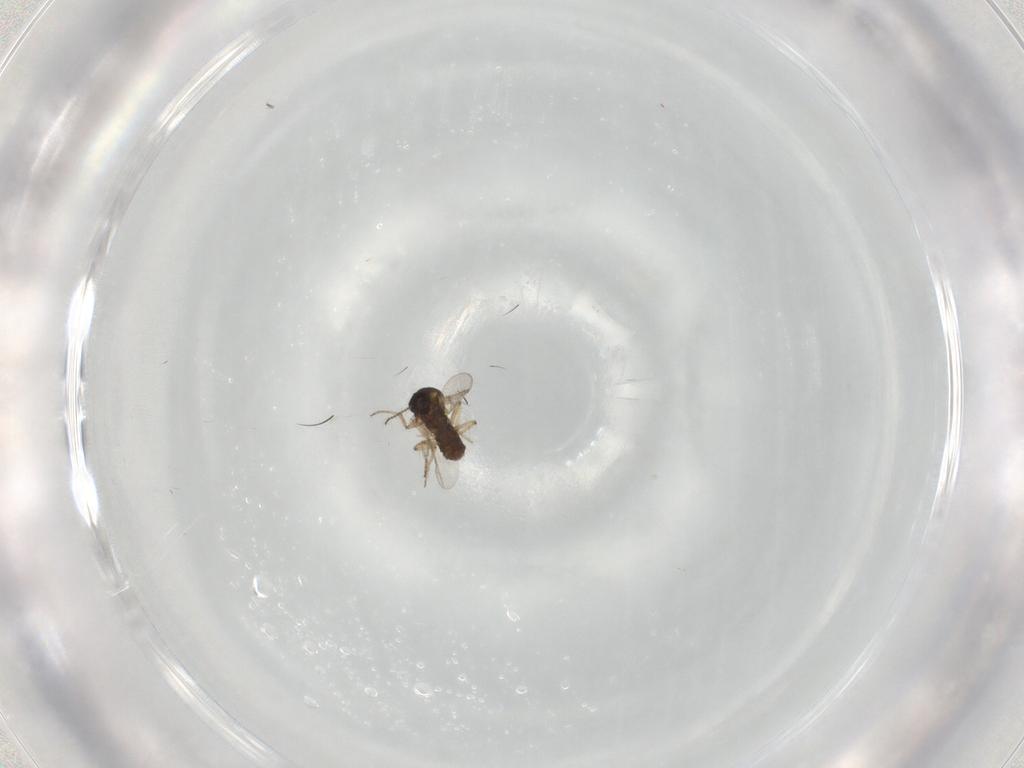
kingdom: Animalia
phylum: Arthropoda
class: Insecta
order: Diptera
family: Ceratopogonidae
